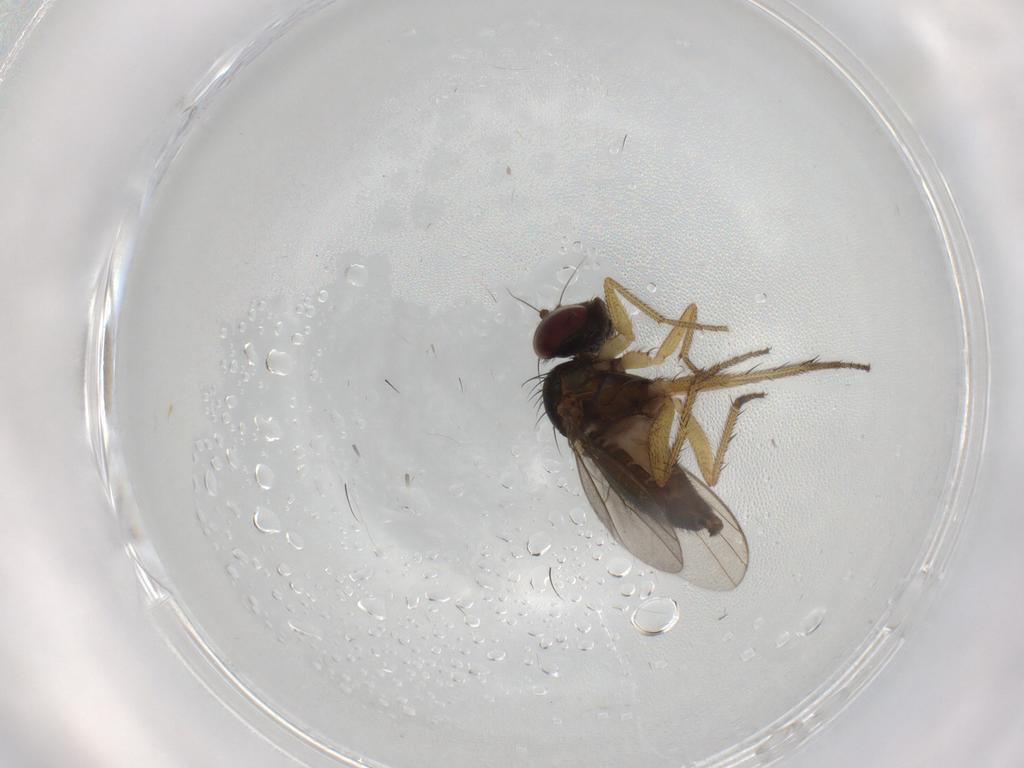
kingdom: Animalia
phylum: Arthropoda
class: Insecta
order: Diptera
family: Dolichopodidae
